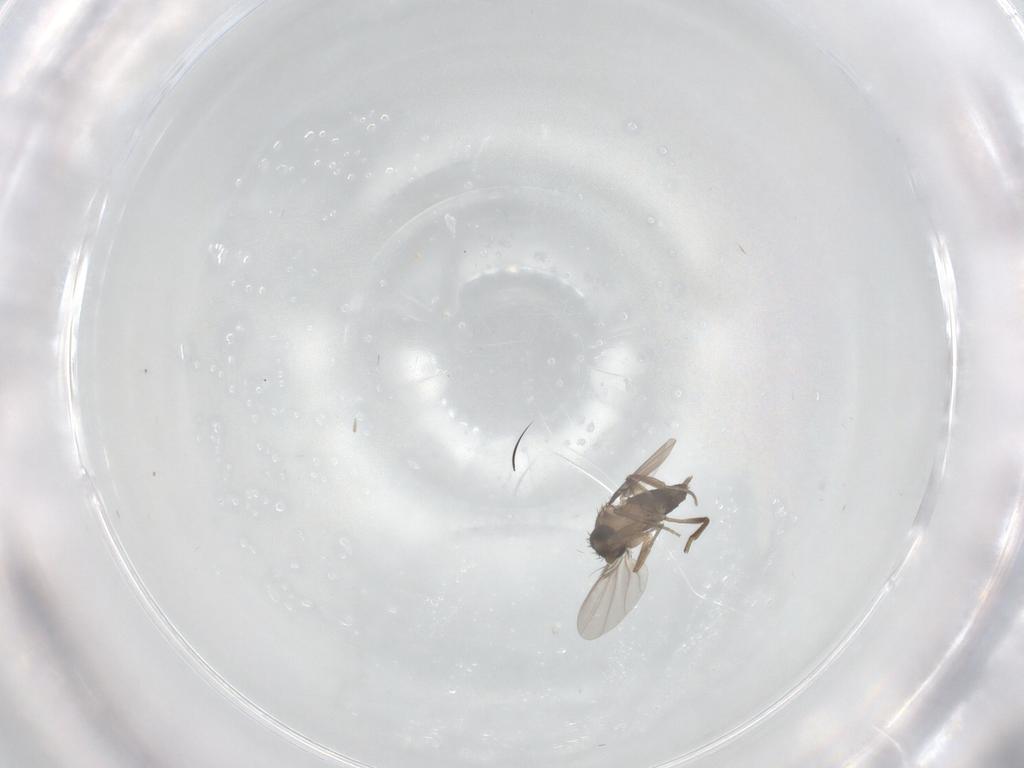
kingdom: Animalia
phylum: Arthropoda
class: Insecta
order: Diptera
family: Phoridae
